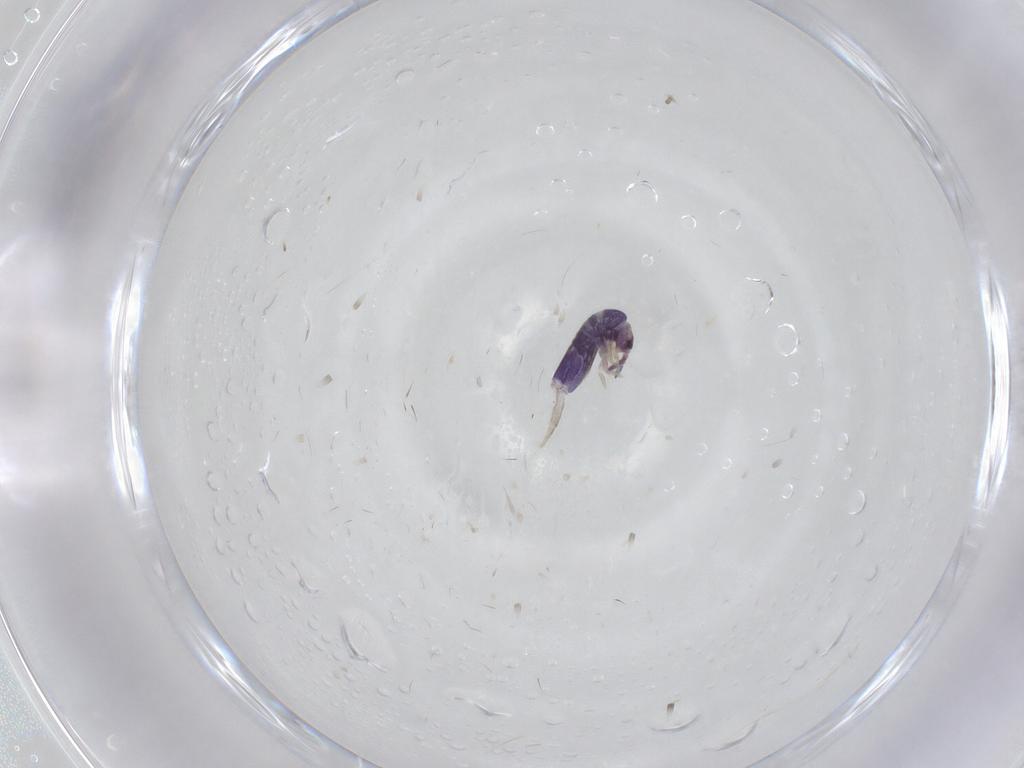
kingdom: Animalia
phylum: Arthropoda
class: Collembola
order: Entomobryomorpha
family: Entomobryidae
